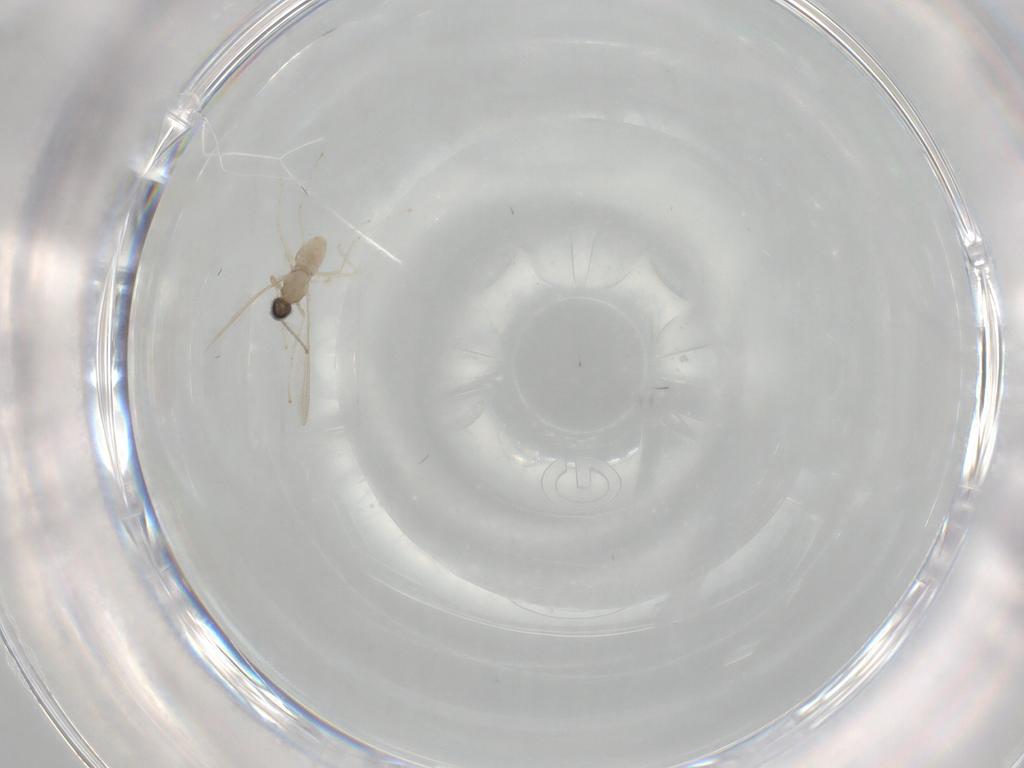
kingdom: Animalia
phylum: Arthropoda
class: Insecta
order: Diptera
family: Cecidomyiidae
